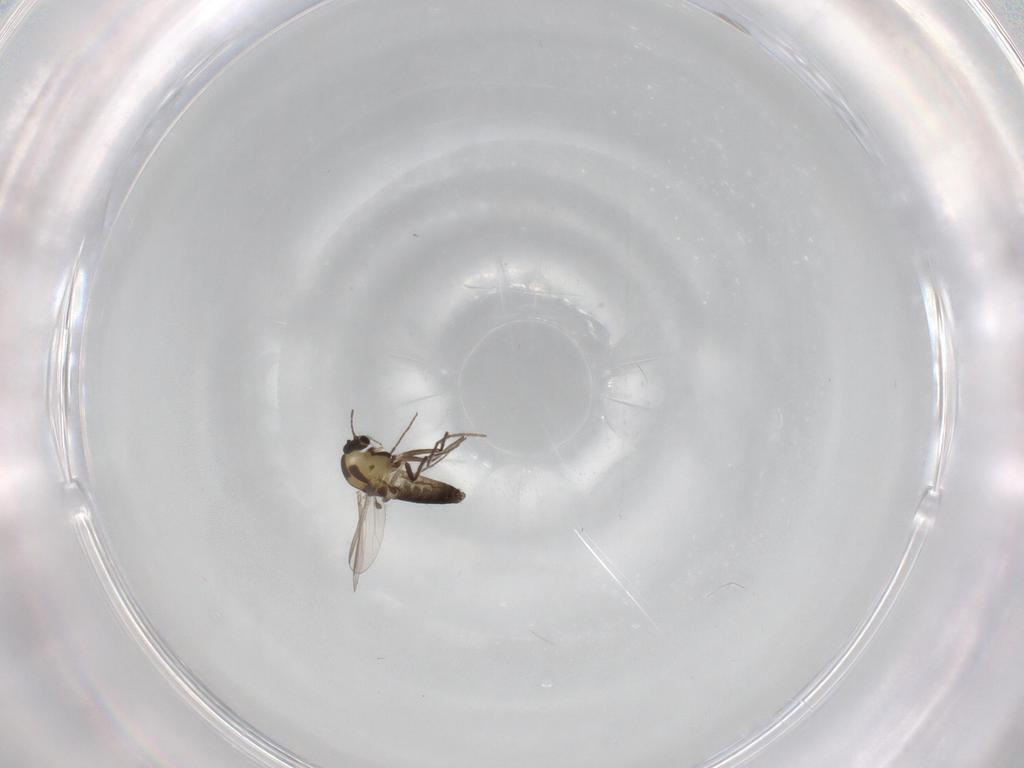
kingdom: Animalia
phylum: Arthropoda
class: Insecta
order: Diptera
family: Chironomidae
